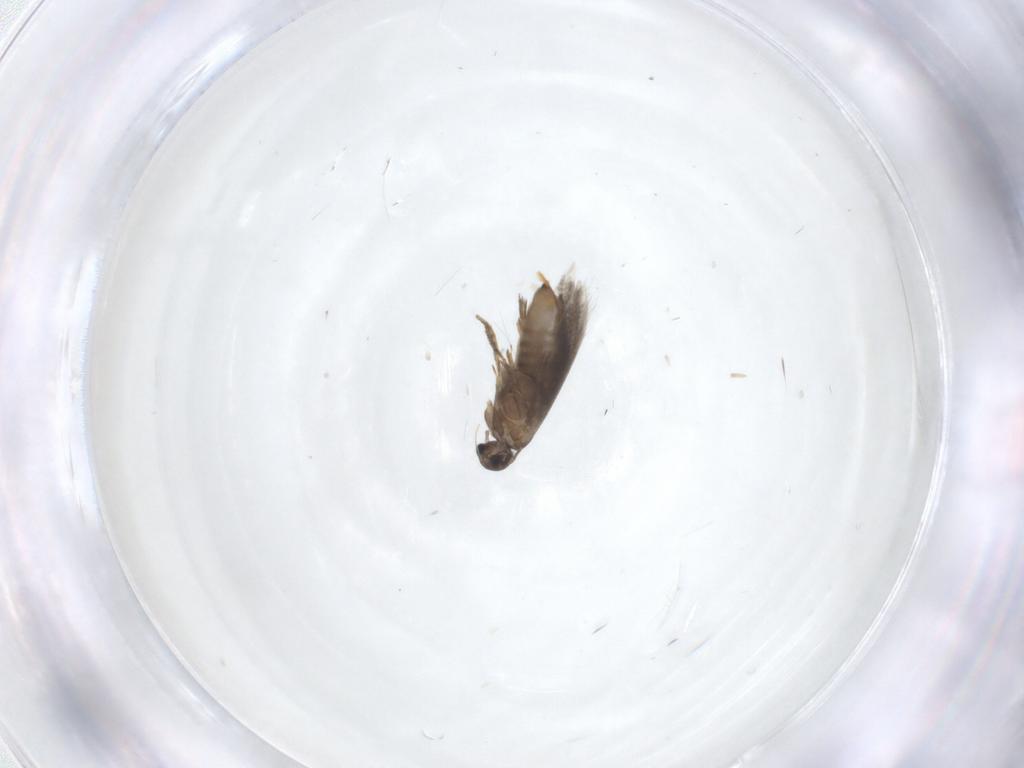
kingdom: Animalia
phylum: Arthropoda
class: Insecta
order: Lepidoptera
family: Heliozelidae
